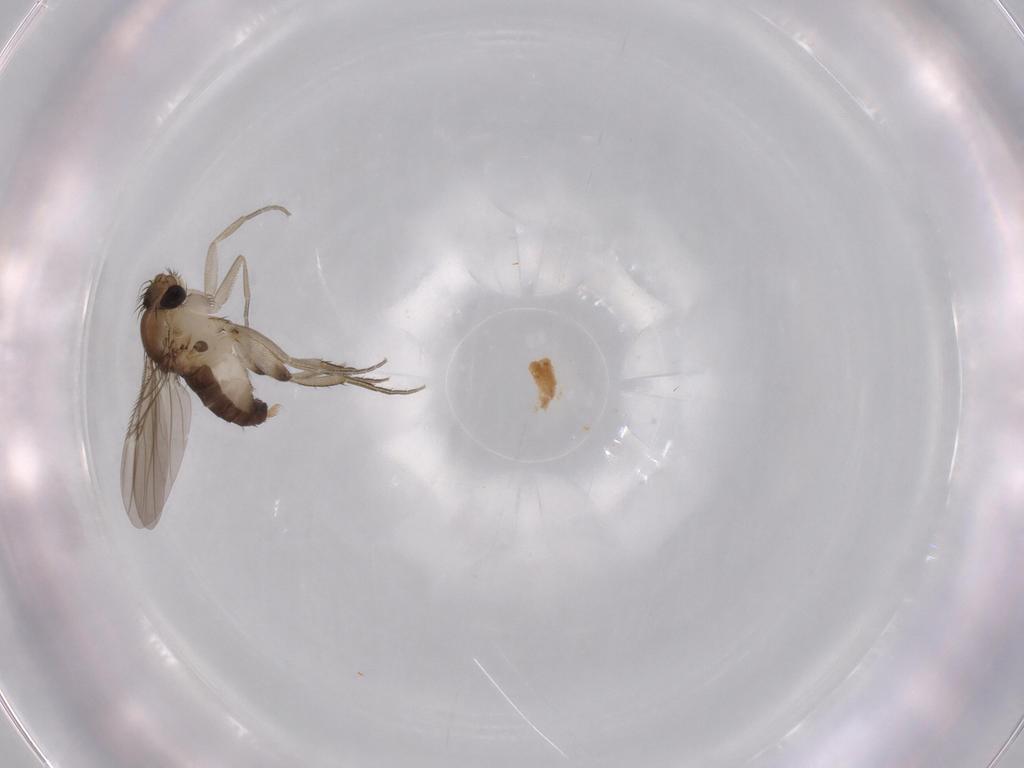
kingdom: Animalia
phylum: Arthropoda
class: Insecta
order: Diptera
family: Phoridae
